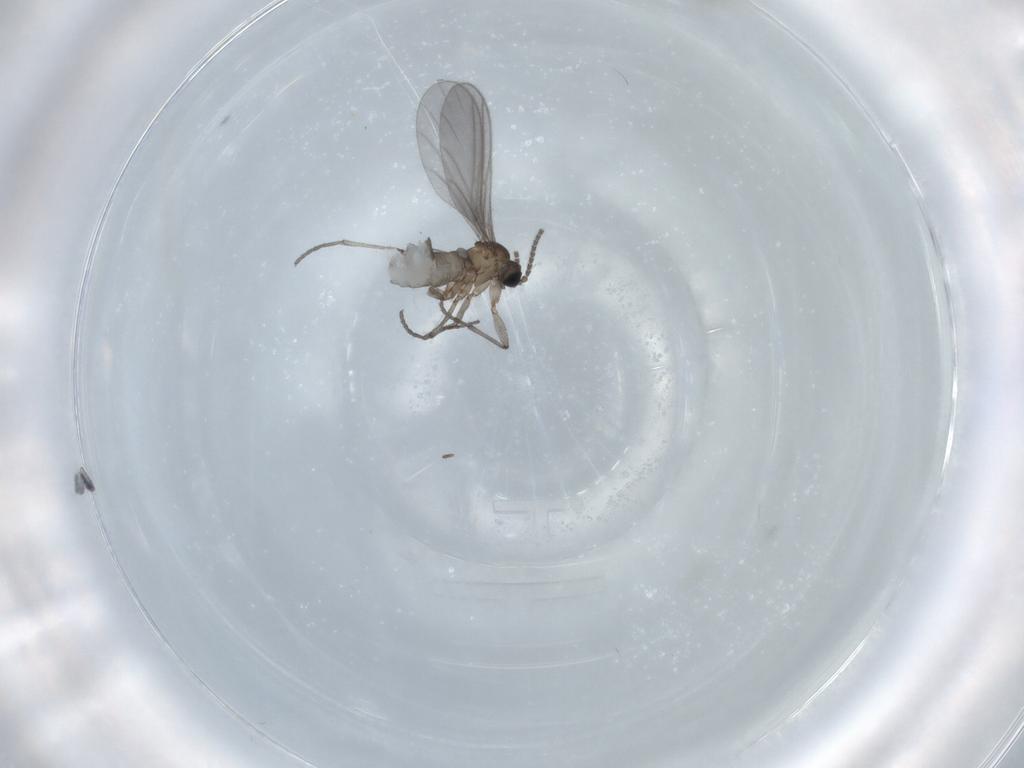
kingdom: Animalia
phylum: Arthropoda
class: Insecta
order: Diptera
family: Sciaridae
